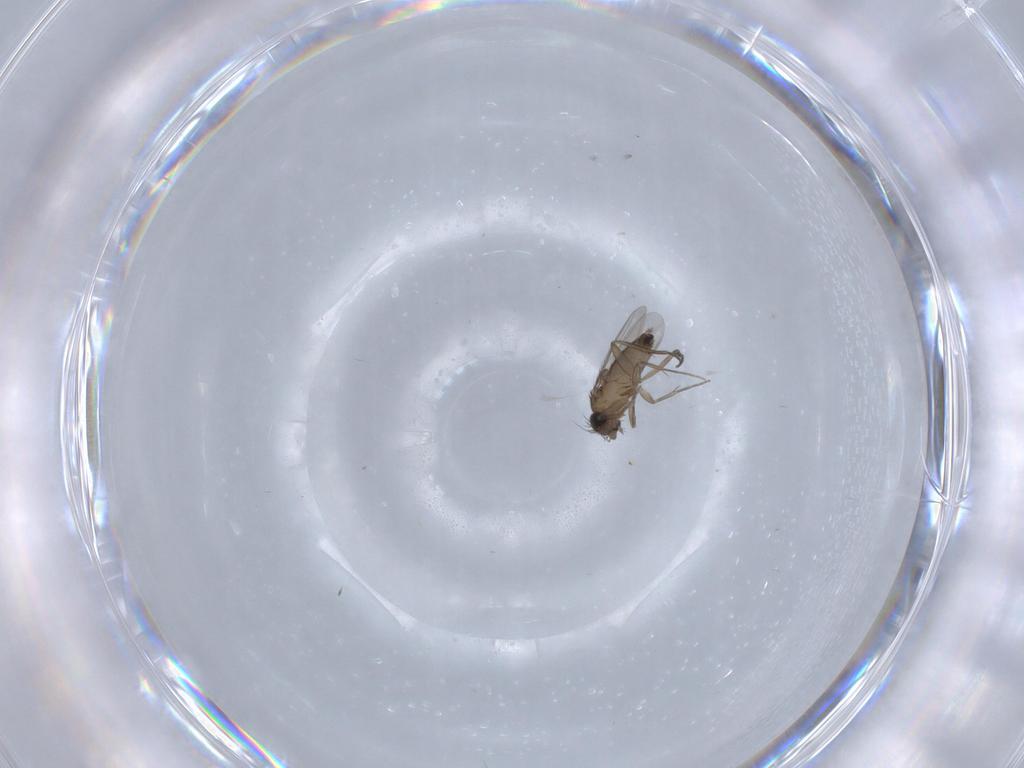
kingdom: Animalia
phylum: Arthropoda
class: Insecta
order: Diptera
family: Phoridae
